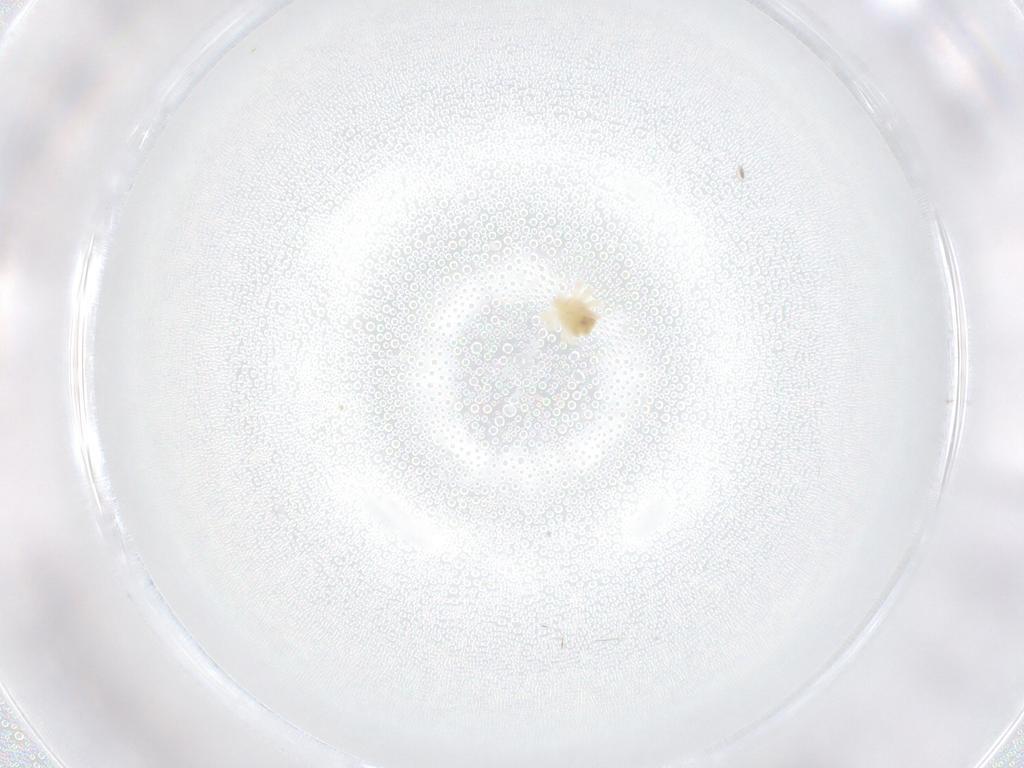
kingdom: Animalia
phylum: Arthropoda
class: Arachnida
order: Trombidiformes
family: Anystidae
